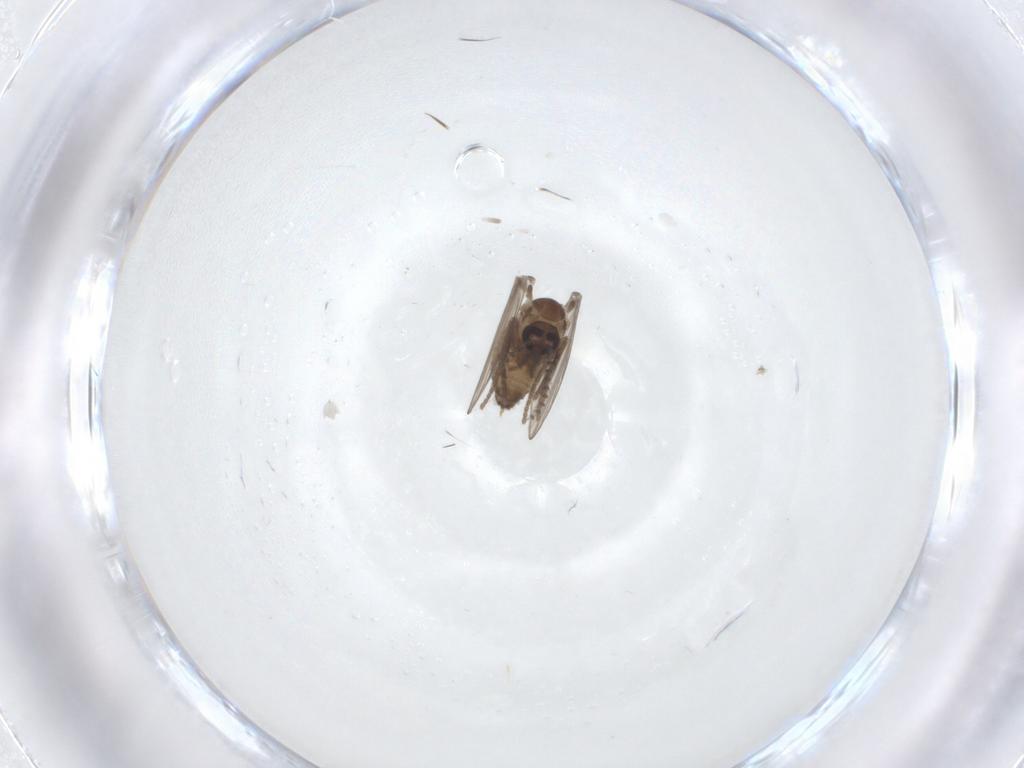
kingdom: Animalia
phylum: Arthropoda
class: Insecta
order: Diptera
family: Psychodidae
